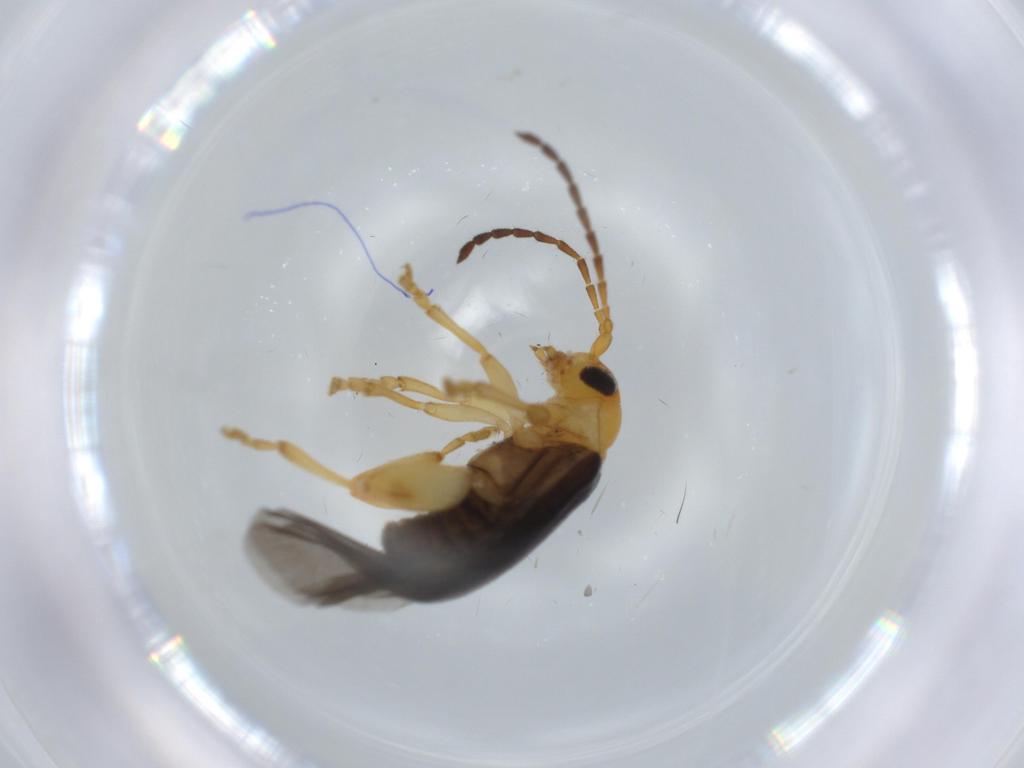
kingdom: Animalia
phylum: Arthropoda
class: Insecta
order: Coleoptera
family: Chrysomelidae
